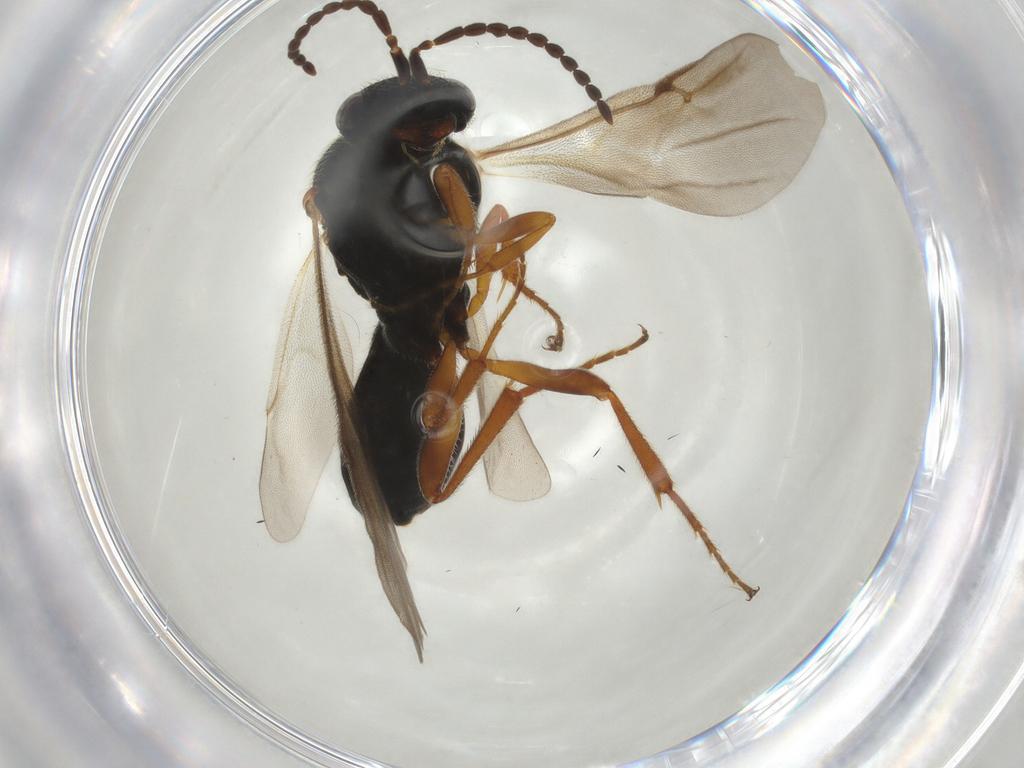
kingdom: Animalia
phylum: Arthropoda
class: Insecta
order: Hymenoptera
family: Scelionidae
